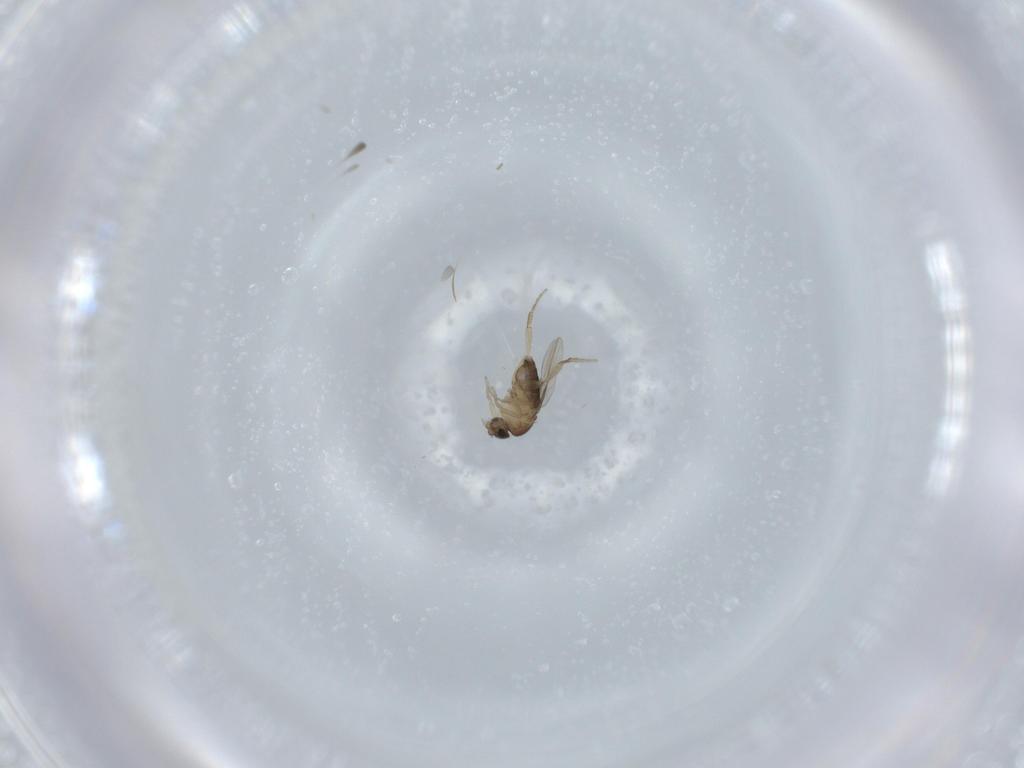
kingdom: Animalia
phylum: Arthropoda
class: Insecta
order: Diptera
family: Phoridae
